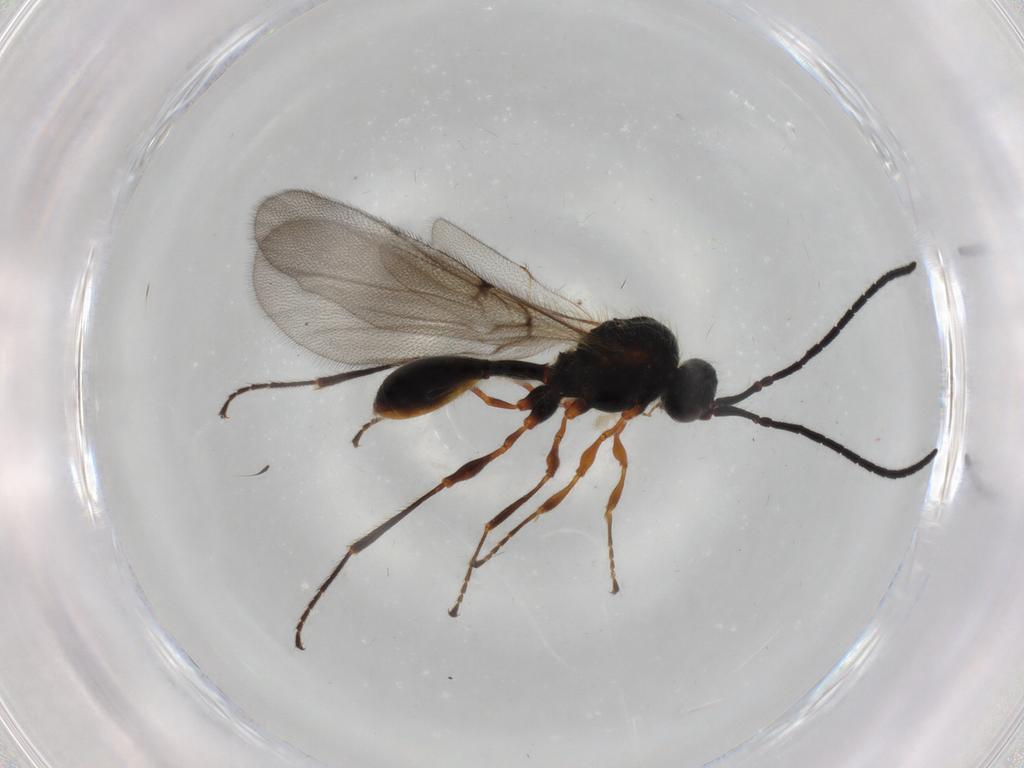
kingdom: Animalia
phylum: Arthropoda
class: Insecta
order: Hymenoptera
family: Diapriidae
